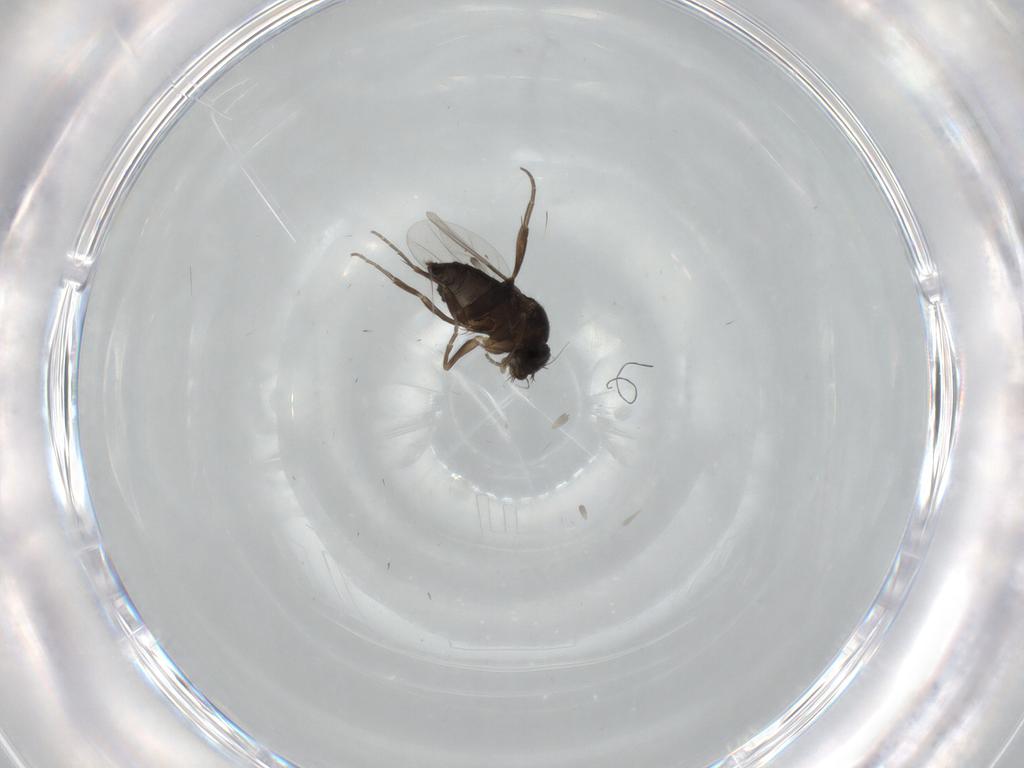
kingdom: Animalia
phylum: Arthropoda
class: Insecta
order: Diptera
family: Phoridae
